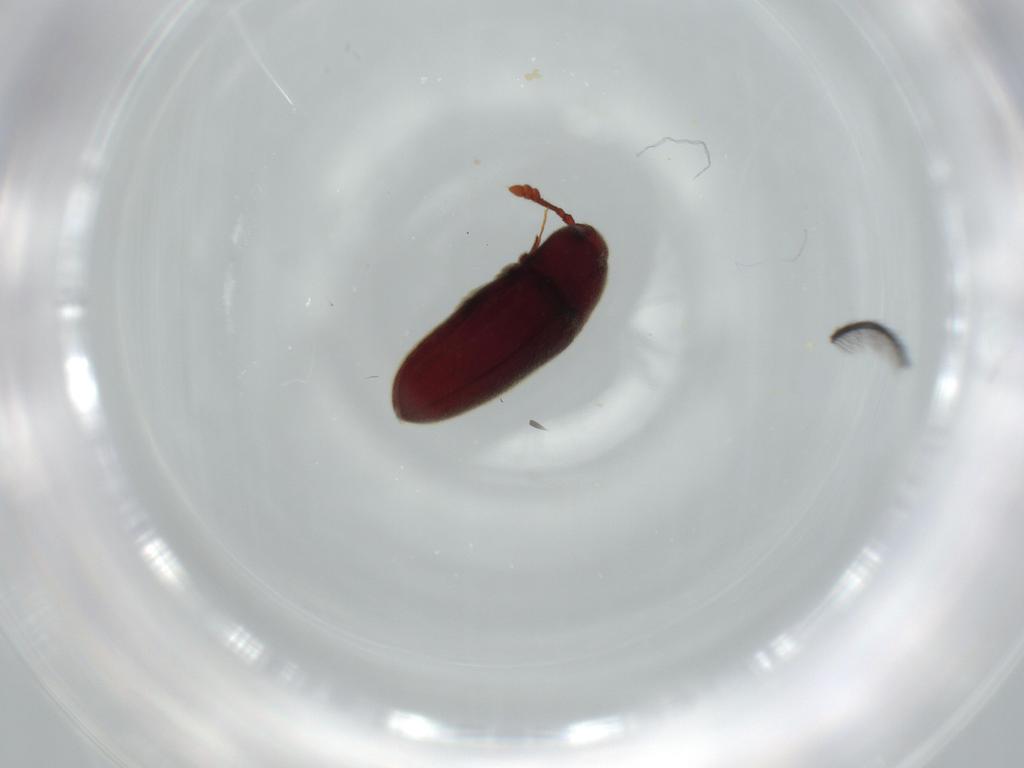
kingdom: Animalia
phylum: Arthropoda
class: Insecta
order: Coleoptera
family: Throscidae
